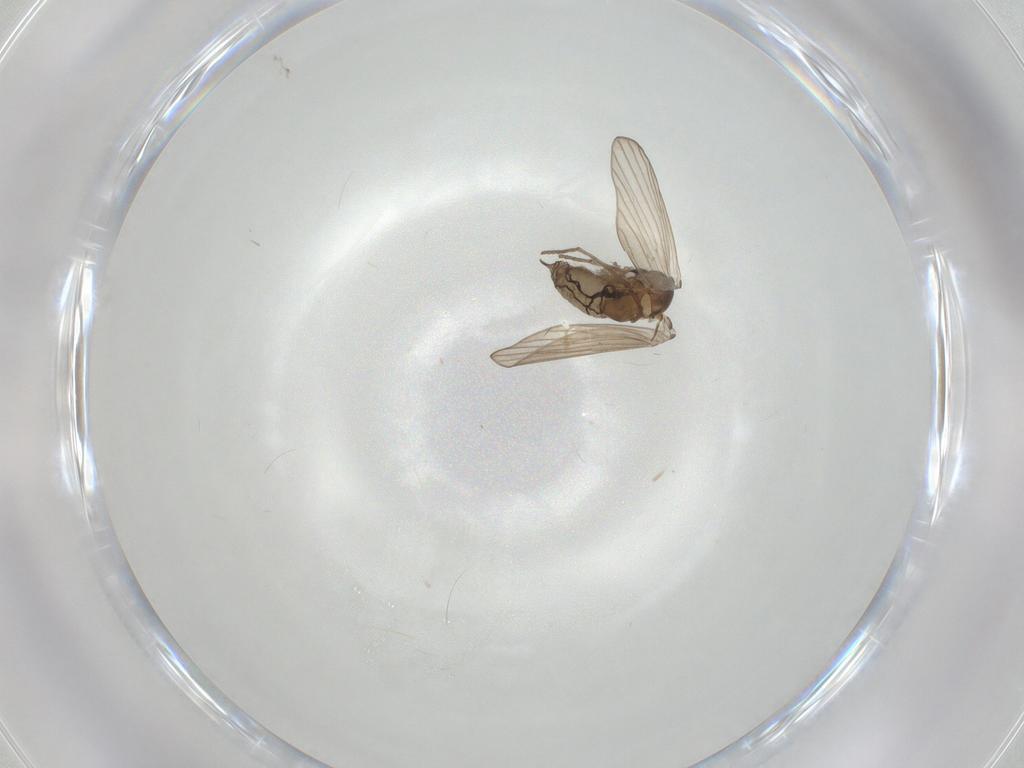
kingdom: Animalia
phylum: Arthropoda
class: Insecta
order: Diptera
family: Psychodidae
